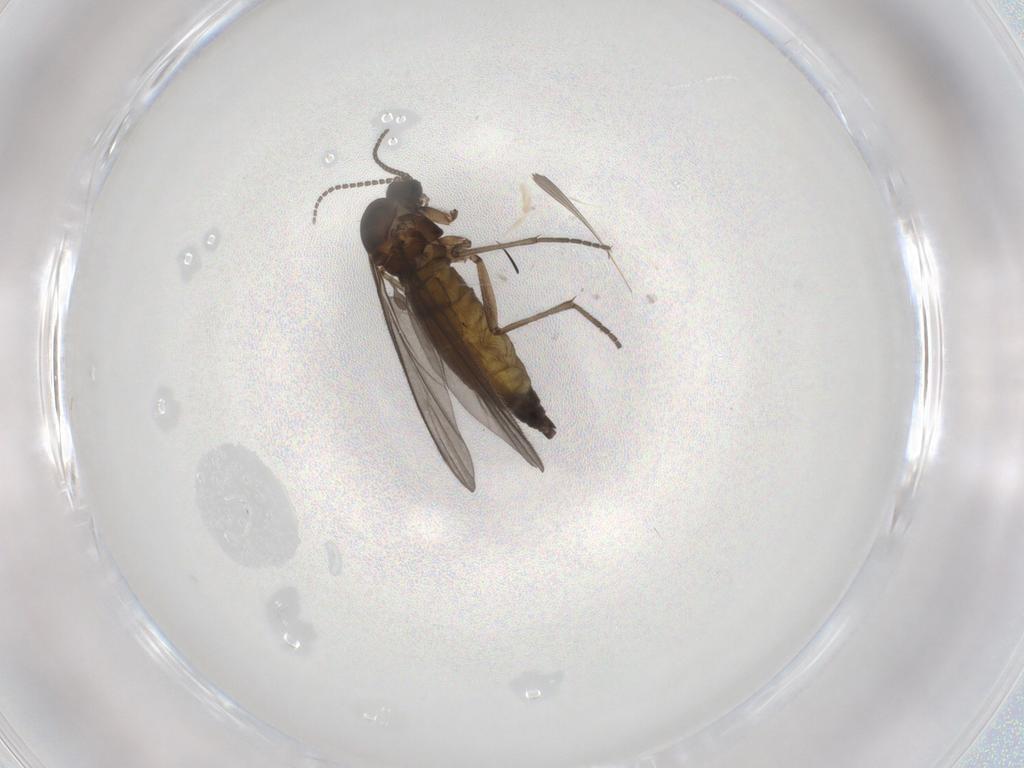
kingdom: Animalia
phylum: Arthropoda
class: Insecta
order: Diptera
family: Sciaridae
